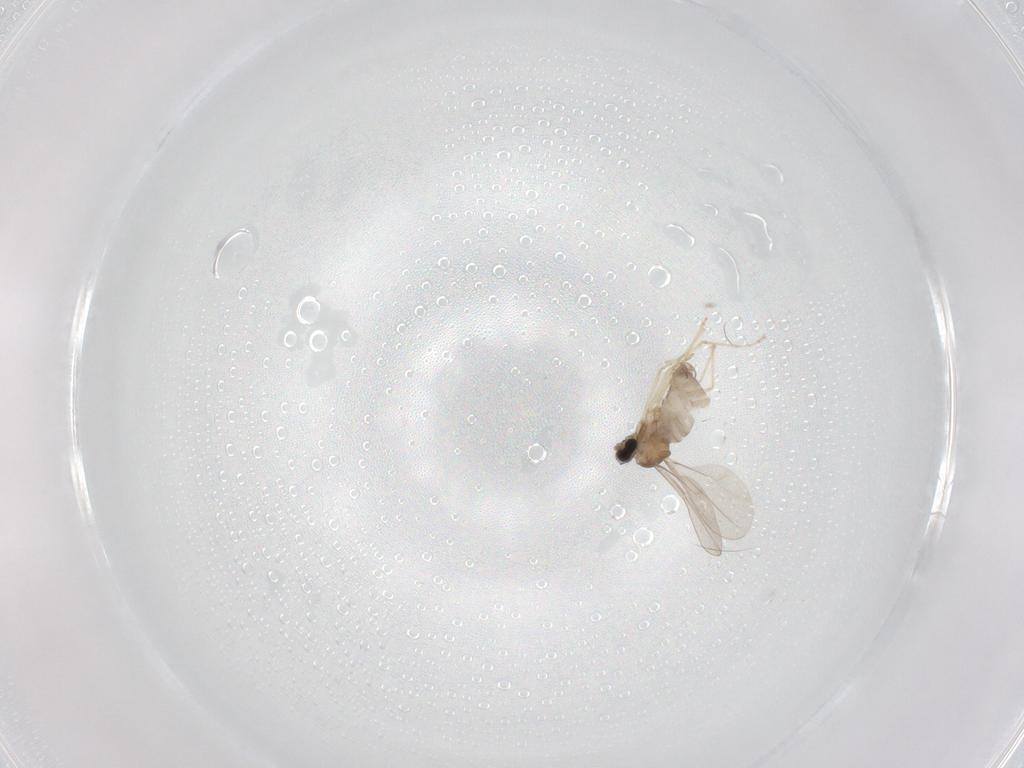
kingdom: Animalia
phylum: Arthropoda
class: Insecta
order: Diptera
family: Cecidomyiidae
